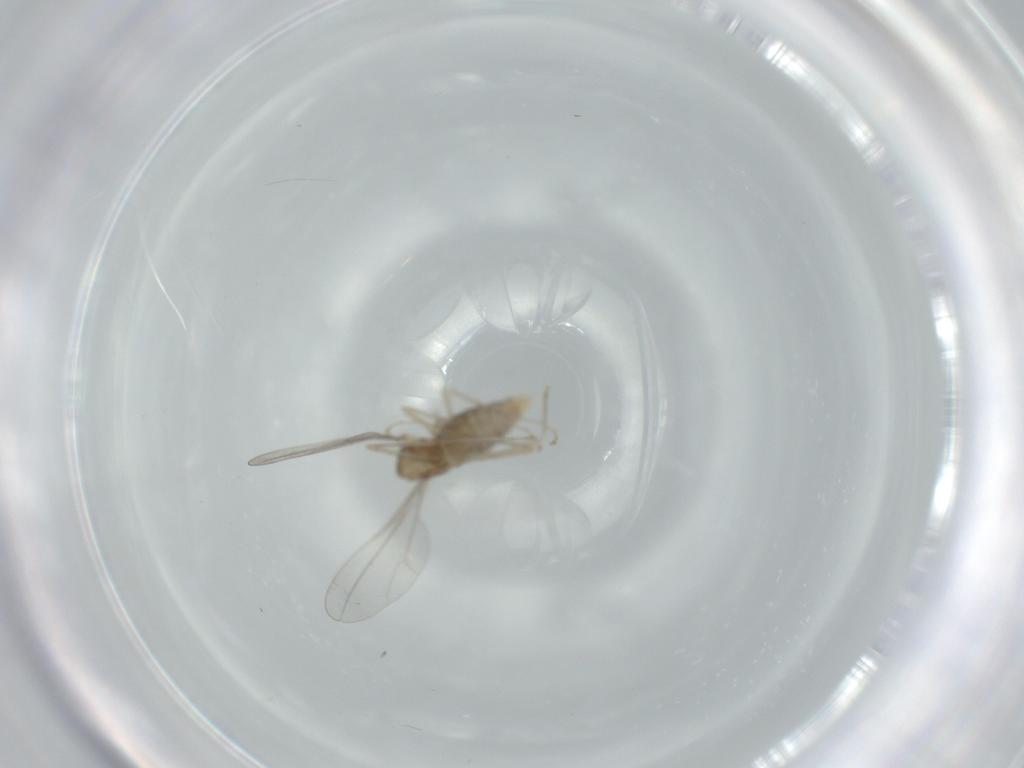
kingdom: Animalia
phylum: Arthropoda
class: Insecta
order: Diptera
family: Cecidomyiidae
